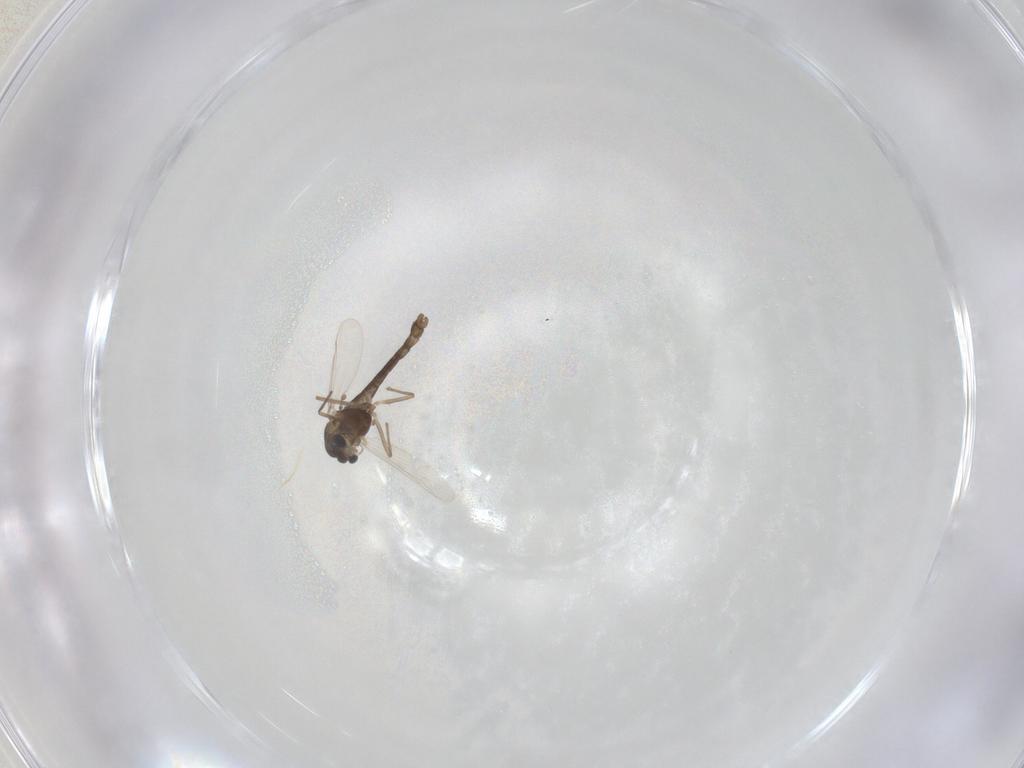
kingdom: Animalia
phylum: Arthropoda
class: Insecta
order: Diptera
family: Chironomidae
